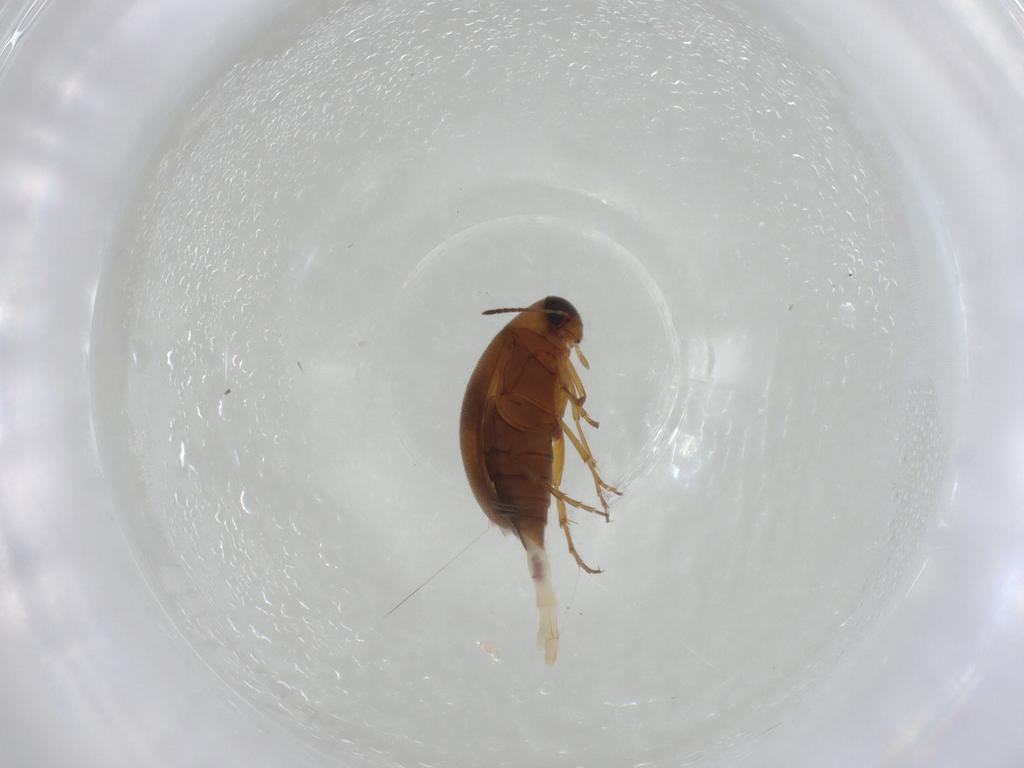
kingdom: Animalia
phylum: Arthropoda
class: Insecta
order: Coleoptera
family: Scraptiidae
